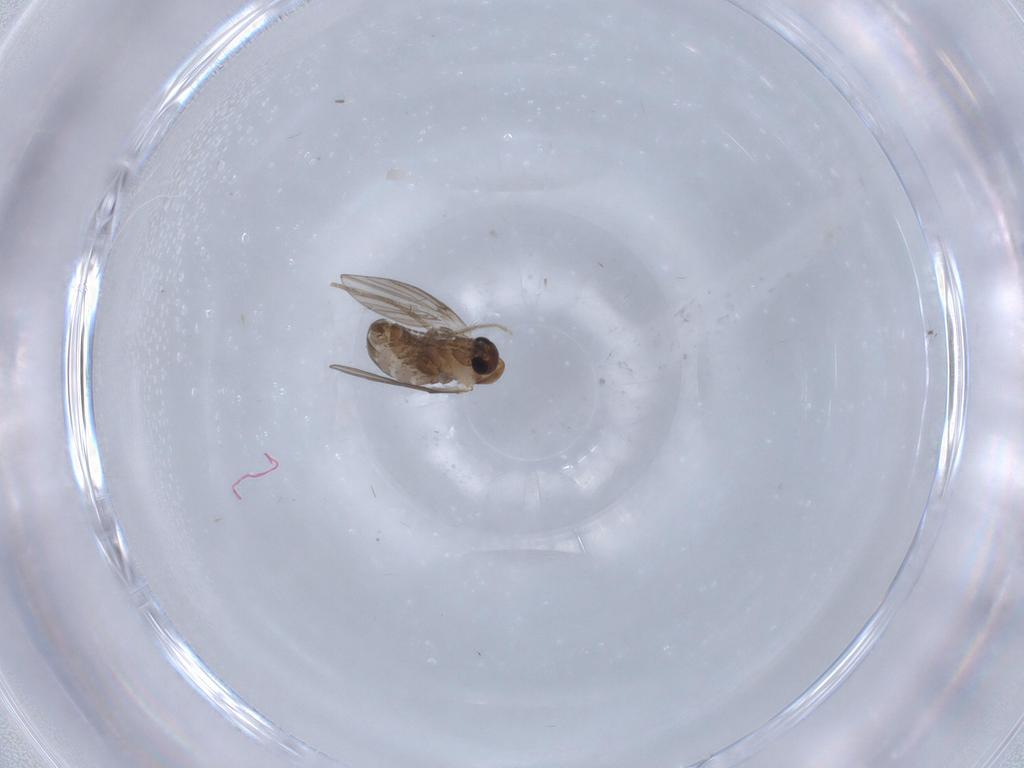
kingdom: Animalia
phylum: Arthropoda
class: Insecta
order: Diptera
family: Psychodidae
